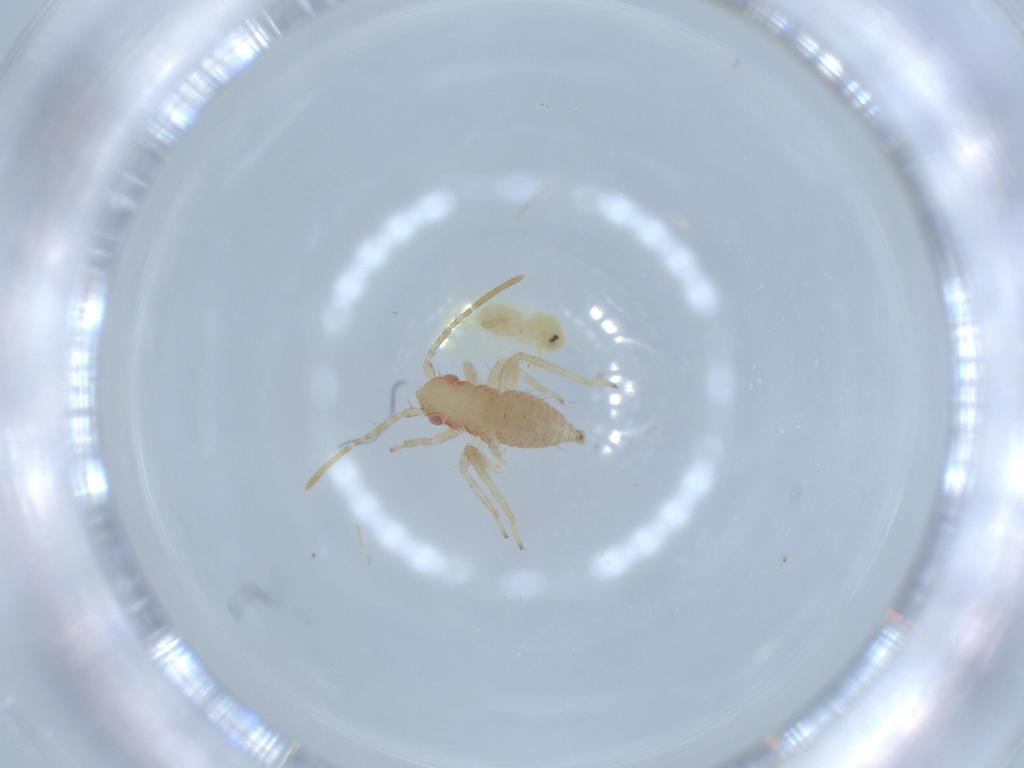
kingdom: Animalia
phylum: Arthropoda
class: Insecta
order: Hemiptera
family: Miridae
